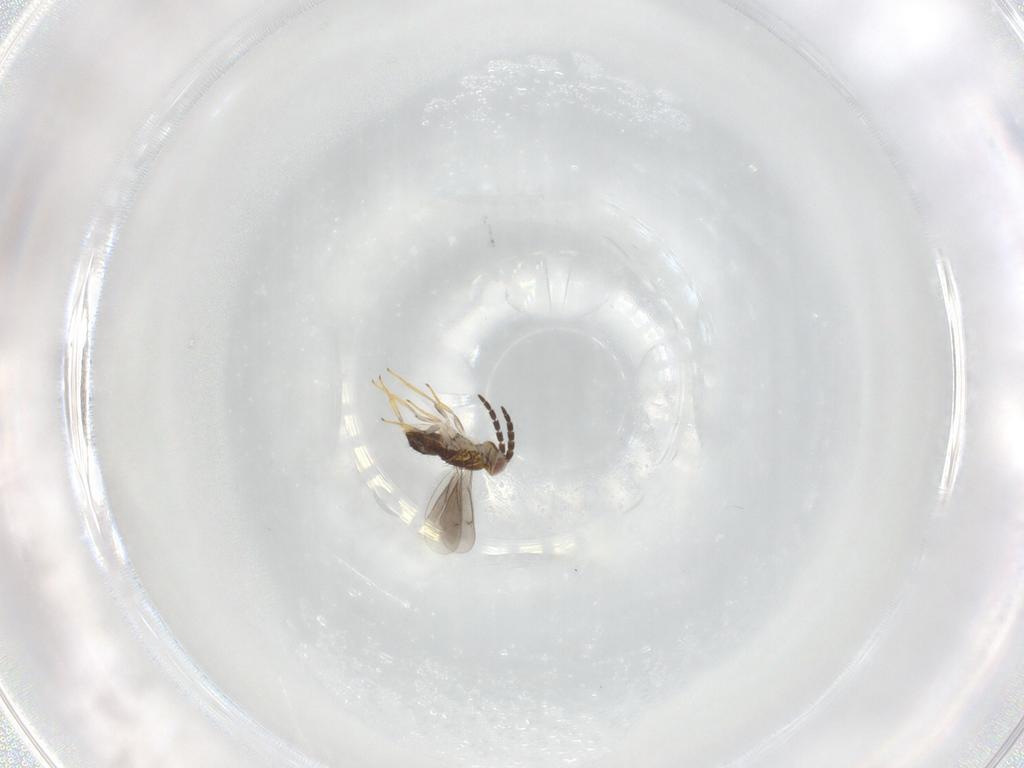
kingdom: Animalia
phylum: Arthropoda
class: Insecta
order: Hymenoptera
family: Aphelinidae
